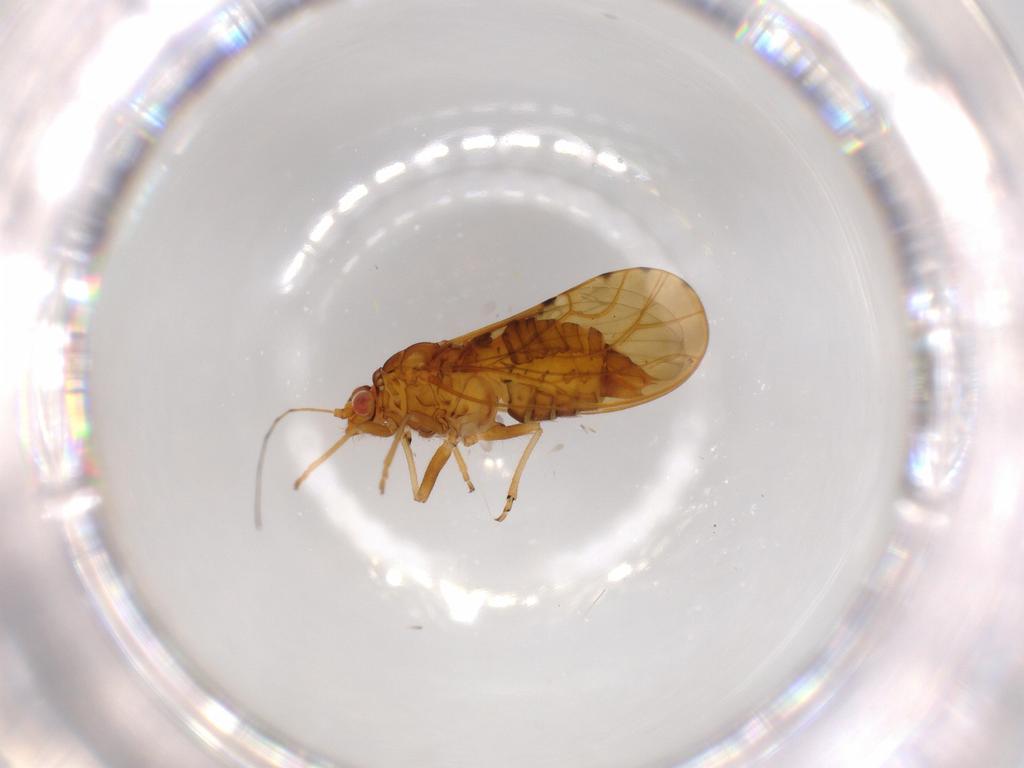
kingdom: Animalia
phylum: Arthropoda
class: Insecta
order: Hemiptera
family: Psylloidea_incertae_sedis
